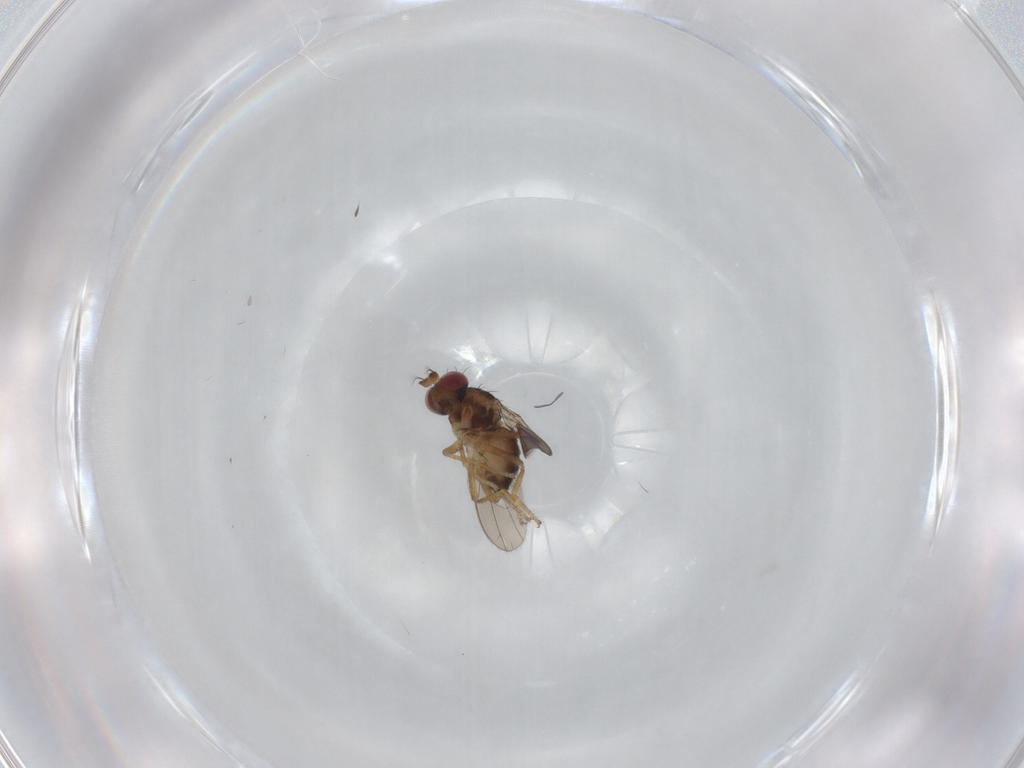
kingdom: Animalia
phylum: Arthropoda
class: Insecta
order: Diptera
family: Ephydridae
